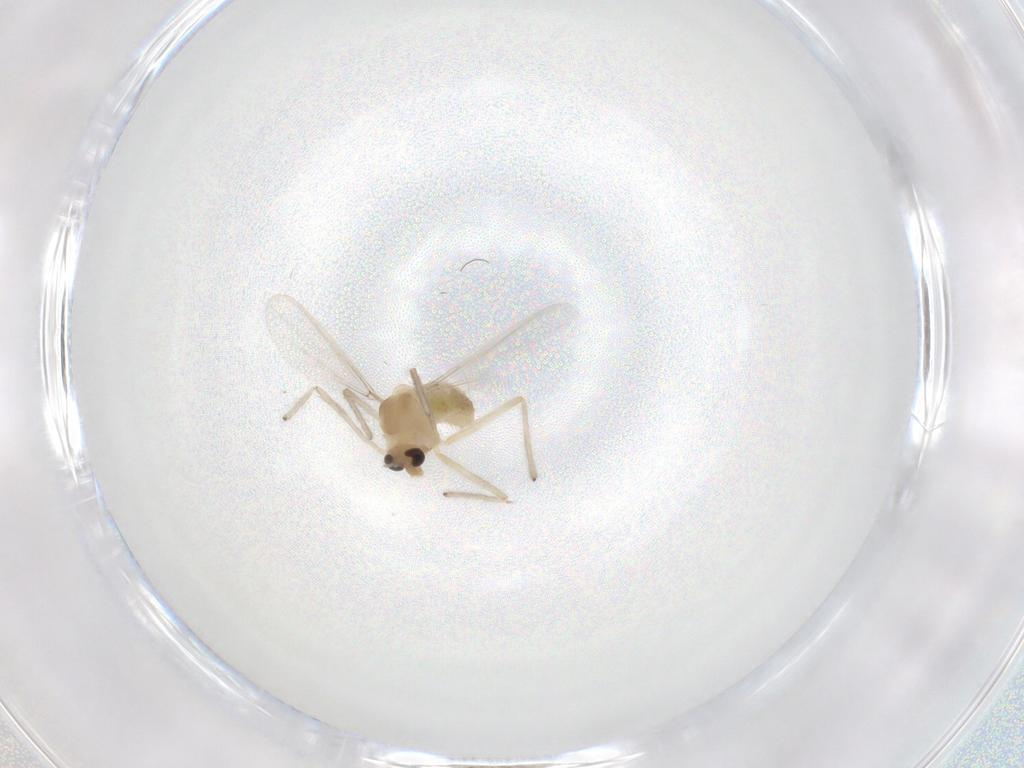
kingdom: Animalia
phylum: Arthropoda
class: Insecta
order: Diptera
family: Chironomidae
